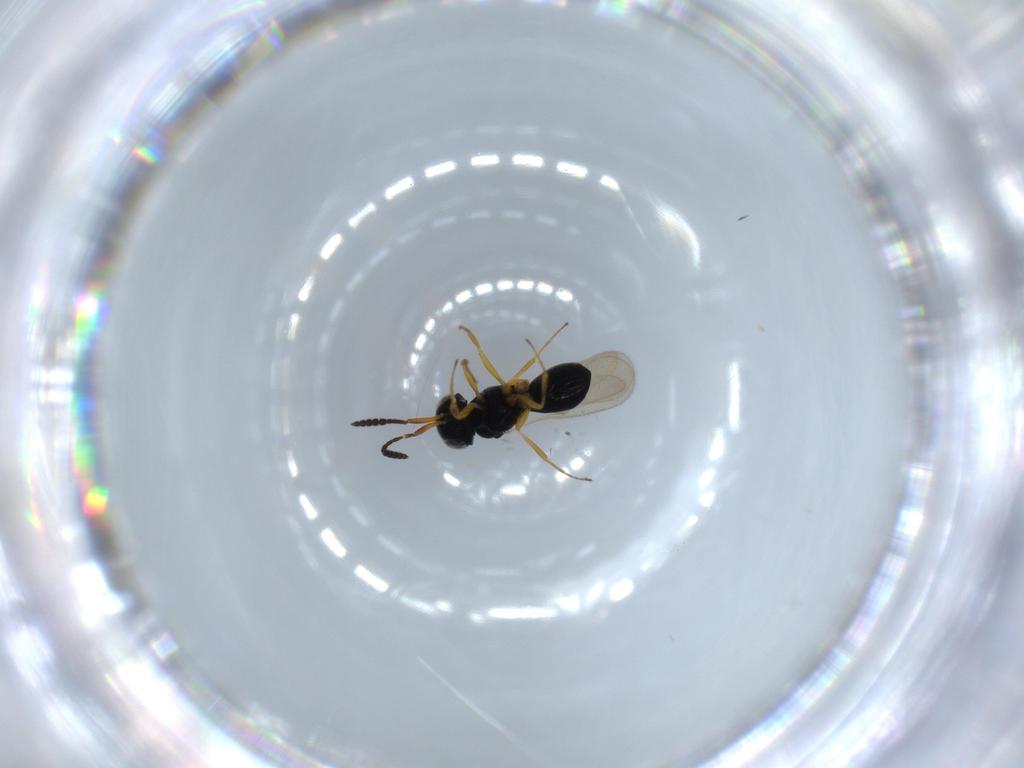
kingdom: Animalia
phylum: Arthropoda
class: Insecta
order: Hymenoptera
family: Scelionidae
